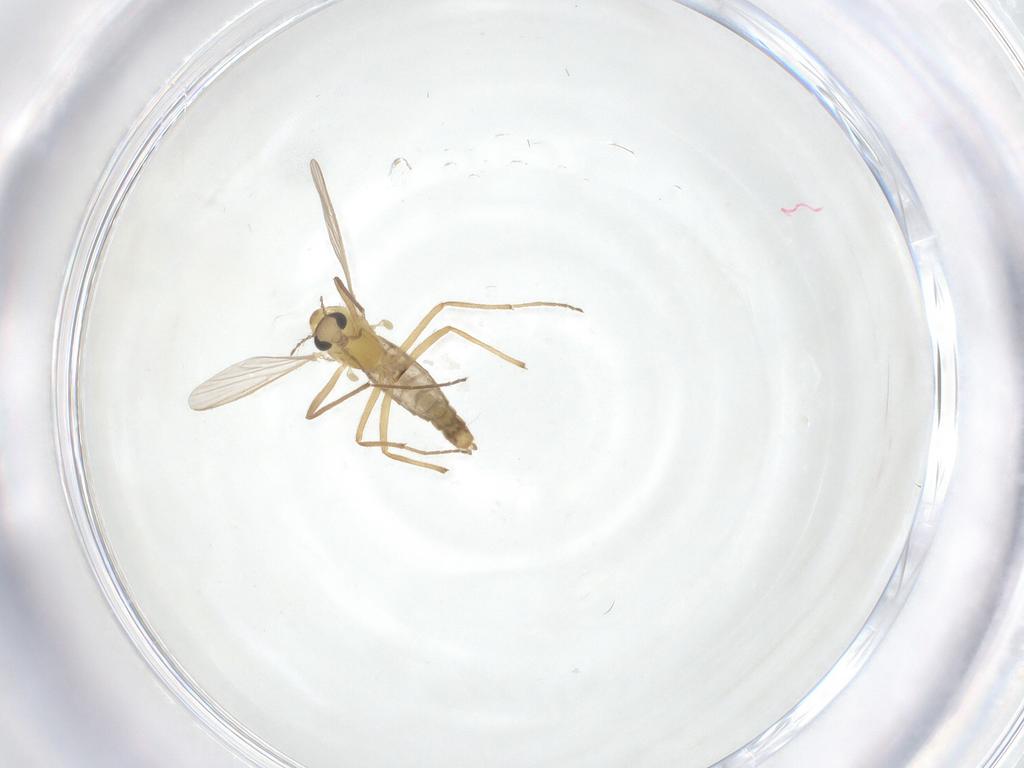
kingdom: Animalia
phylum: Arthropoda
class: Insecta
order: Diptera
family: Chironomidae
